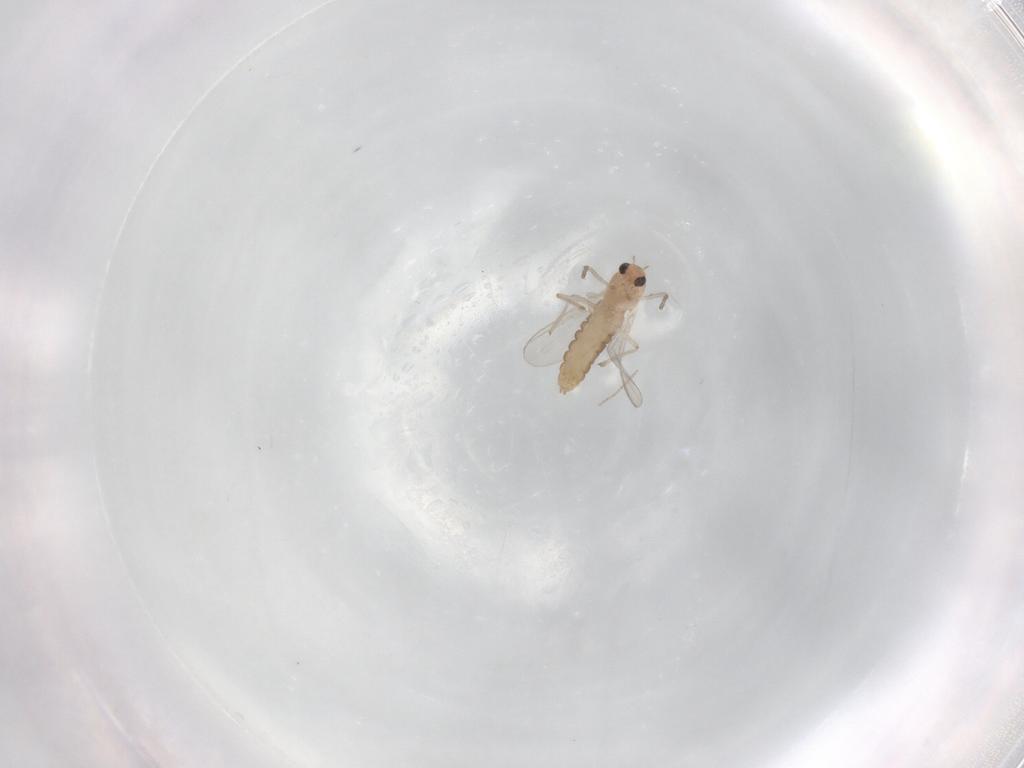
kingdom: Animalia
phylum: Arthropoda
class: Insecta
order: Diptera
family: Chironomidae
